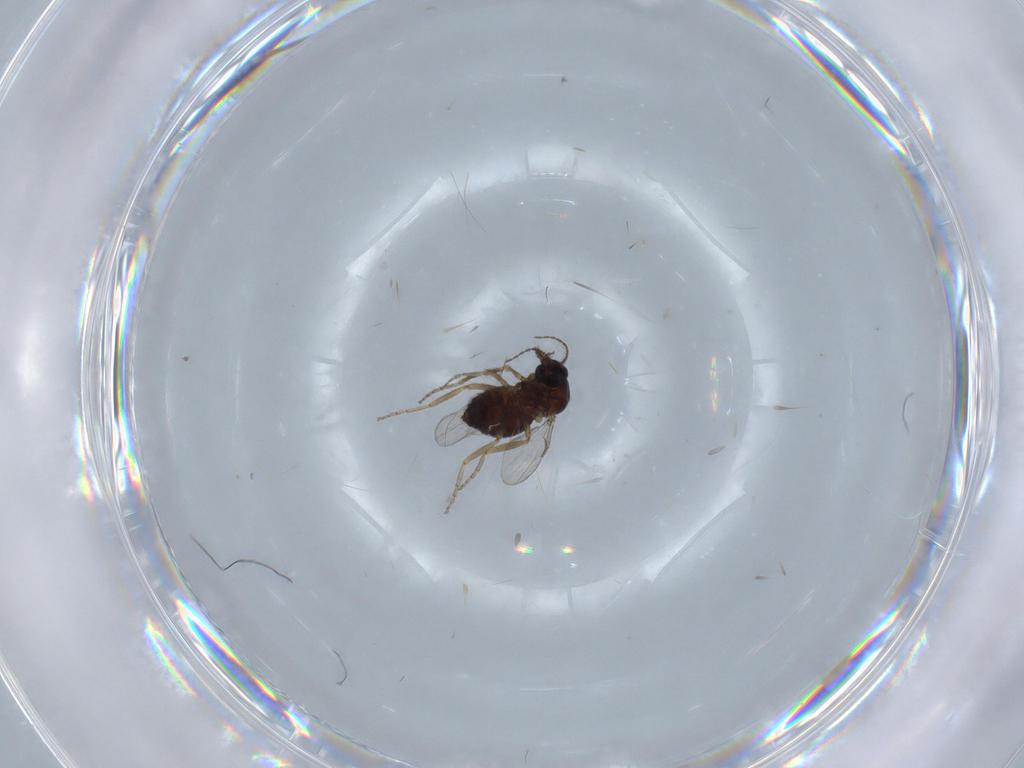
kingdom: Animalia
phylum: Arthropoda
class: Insecta
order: Diptera
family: Ceratopogonidae
